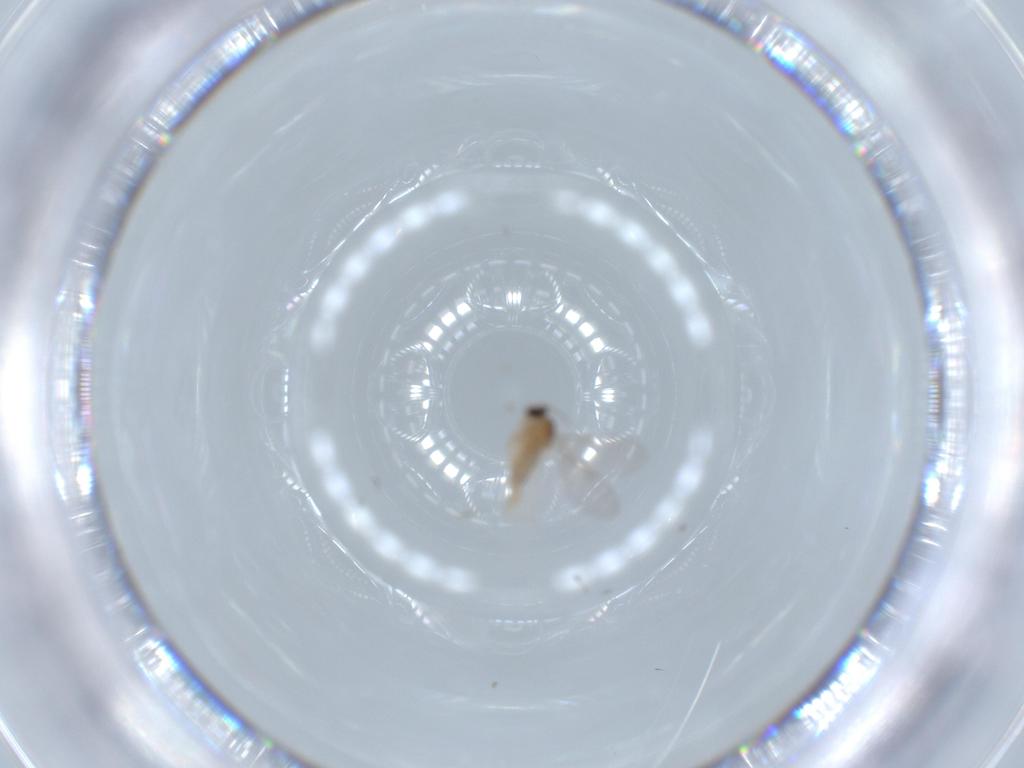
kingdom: Animalia
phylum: Arthropoda
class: Insecta
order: Diptera
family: Cecidomyiidae
